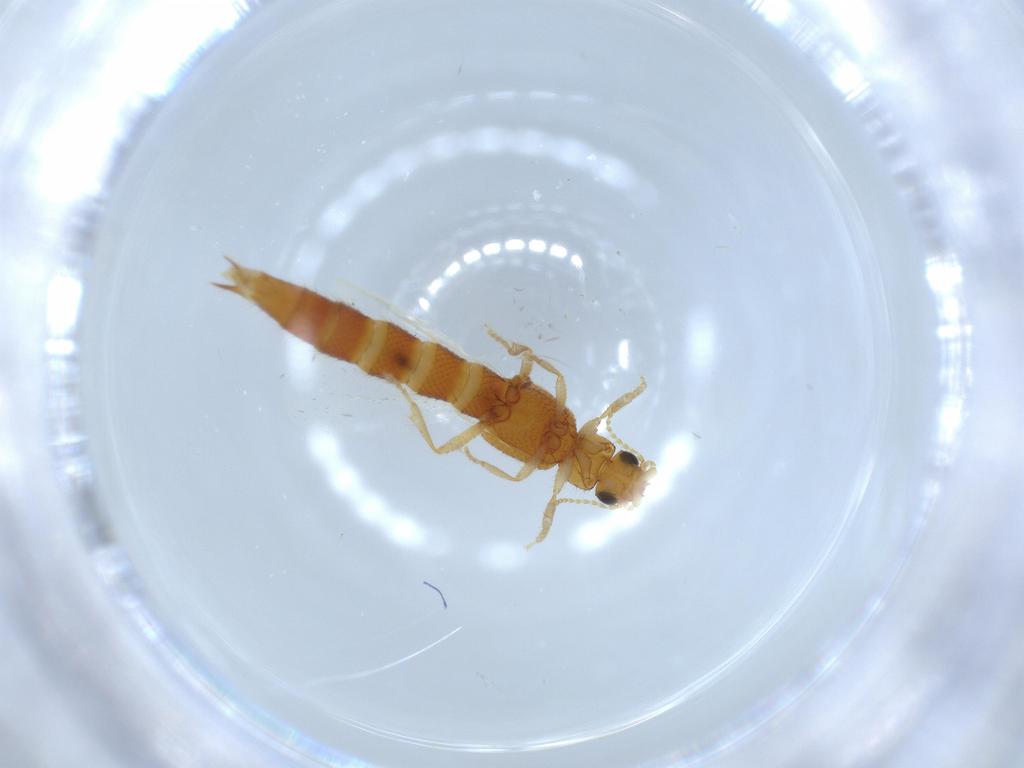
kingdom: Animalia
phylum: Arthropoda
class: Insecta
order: Coleoptera
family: Staphylinidae
